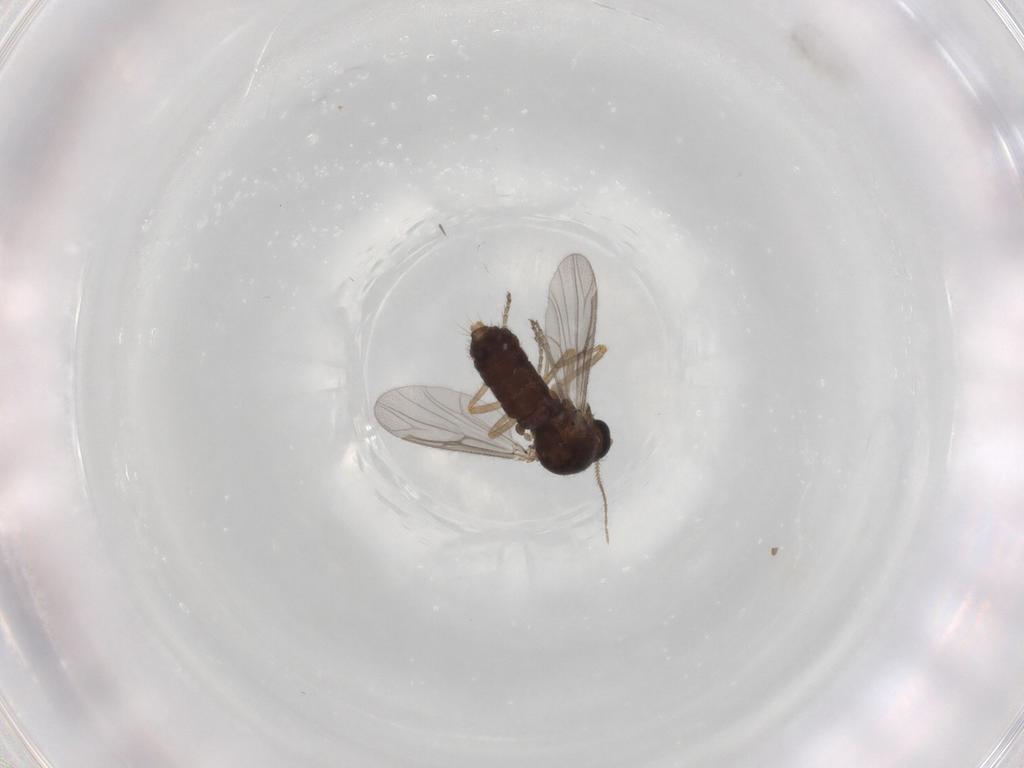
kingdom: Animalia
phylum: Arthropoda
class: Insecta
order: Diptera
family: Ceratopogonidae
